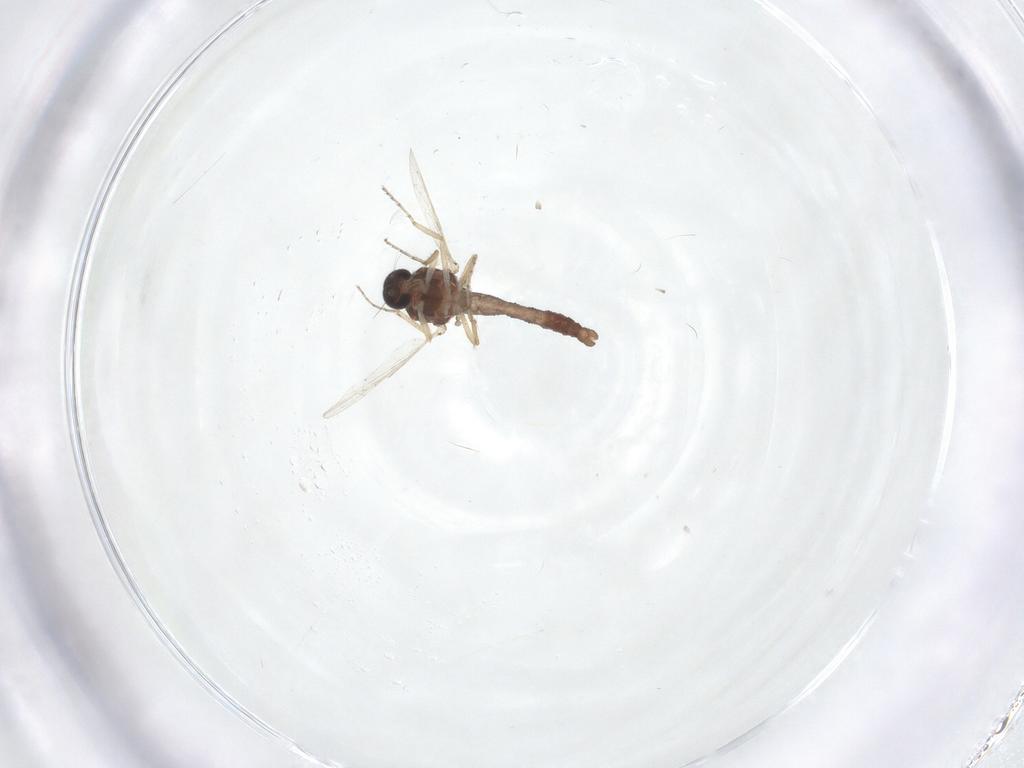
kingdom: Animalia
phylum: Arthropoda
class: Insecta
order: Diptera
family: Ceratopogonidae
